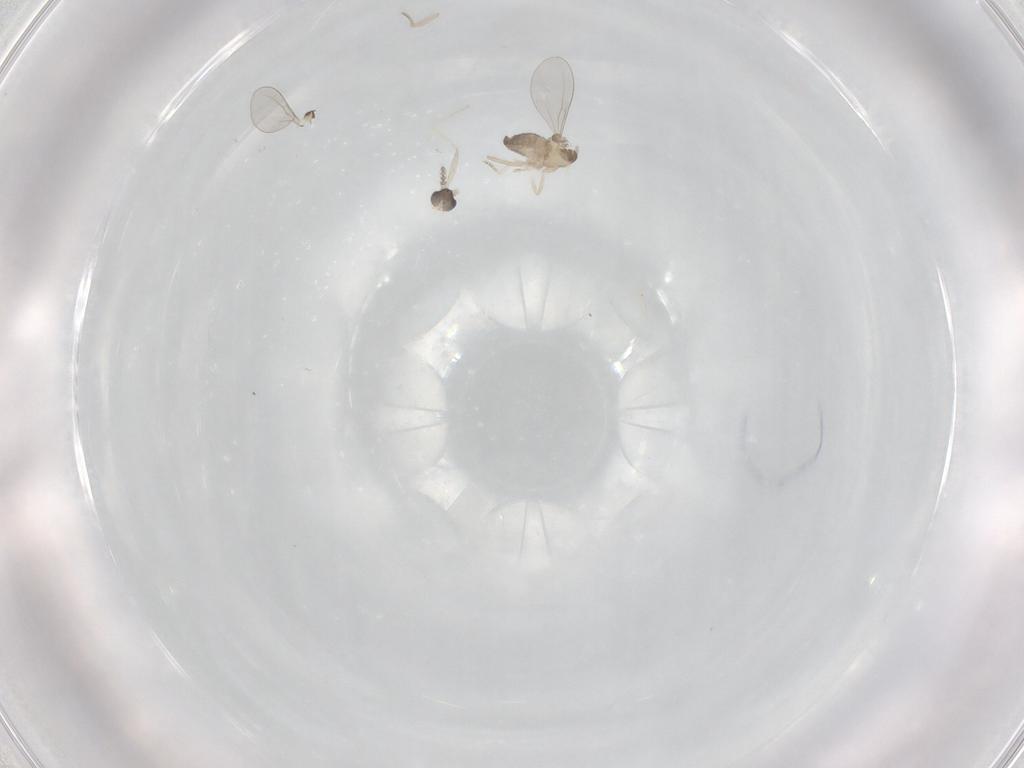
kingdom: Animalia
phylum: Arthropoda
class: Insecta
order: Diptera
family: Cecidomyiidae
